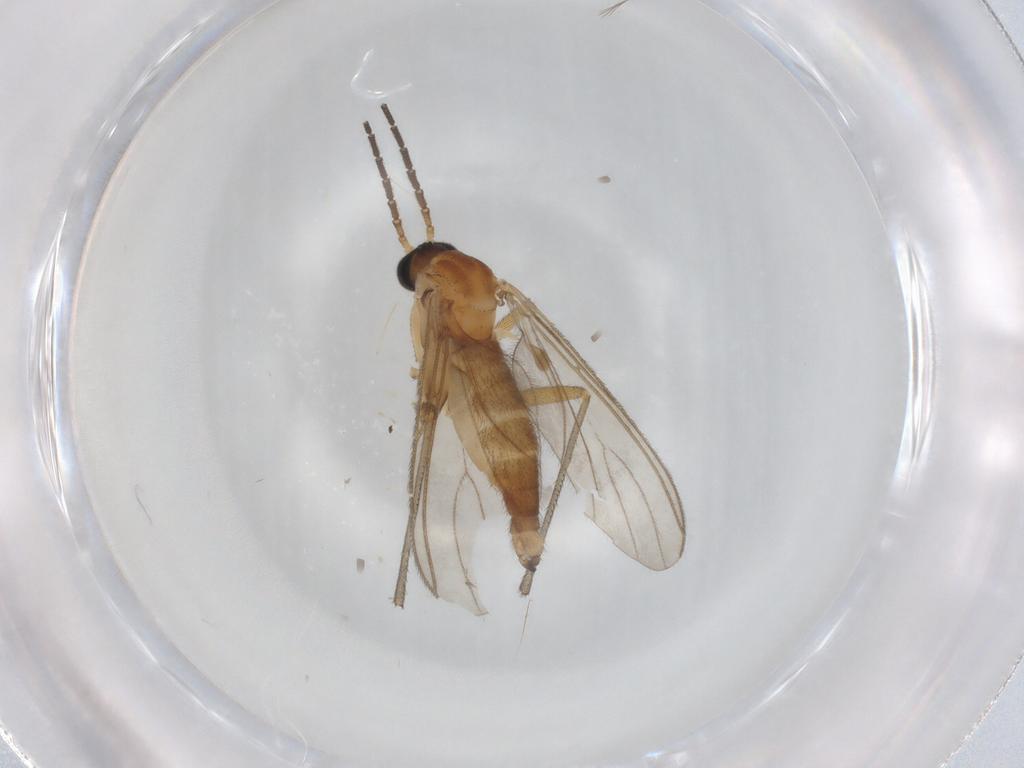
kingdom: Animalia
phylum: Arthropoda
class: Insecta
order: Diptera
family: Sciaridae
